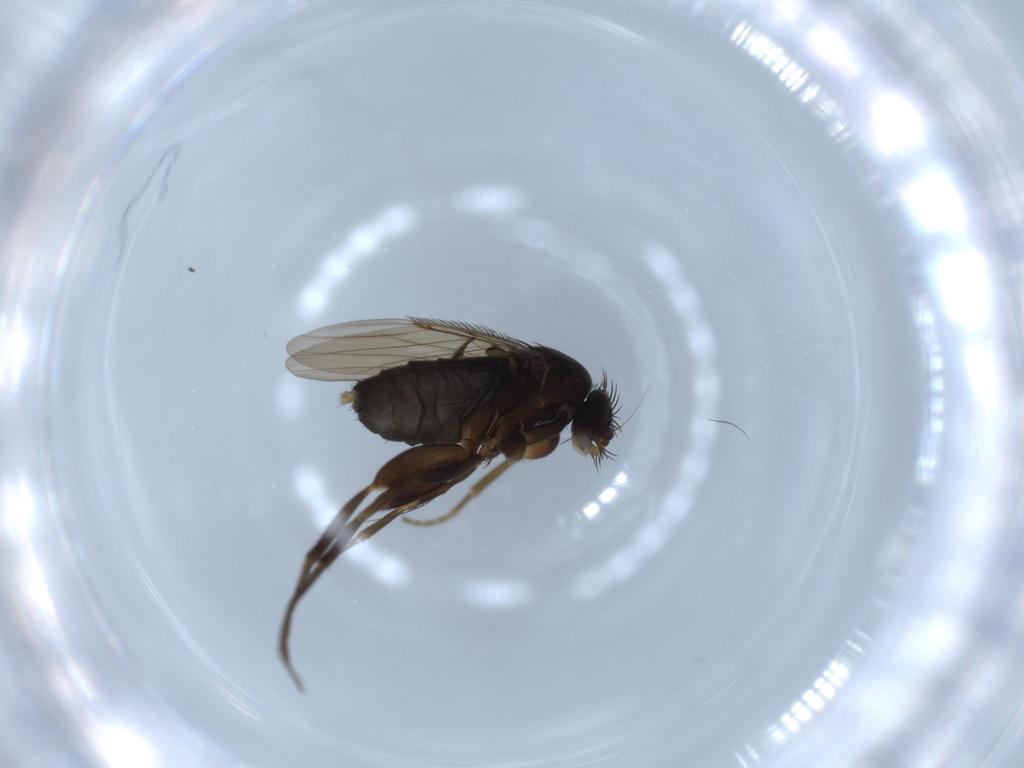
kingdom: Animalia
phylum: Arthropoda
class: Insecta
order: Diptera
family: Phoridae
